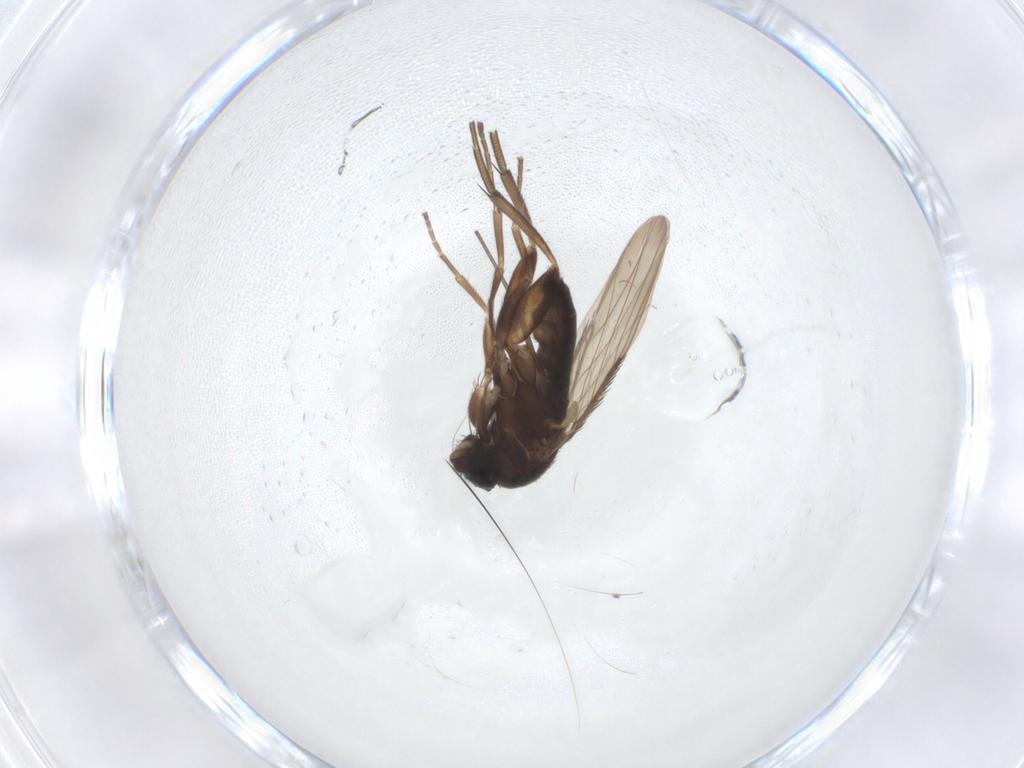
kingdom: Animalia
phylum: Arthropoda
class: Insecta
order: Diptera
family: Phoridae
